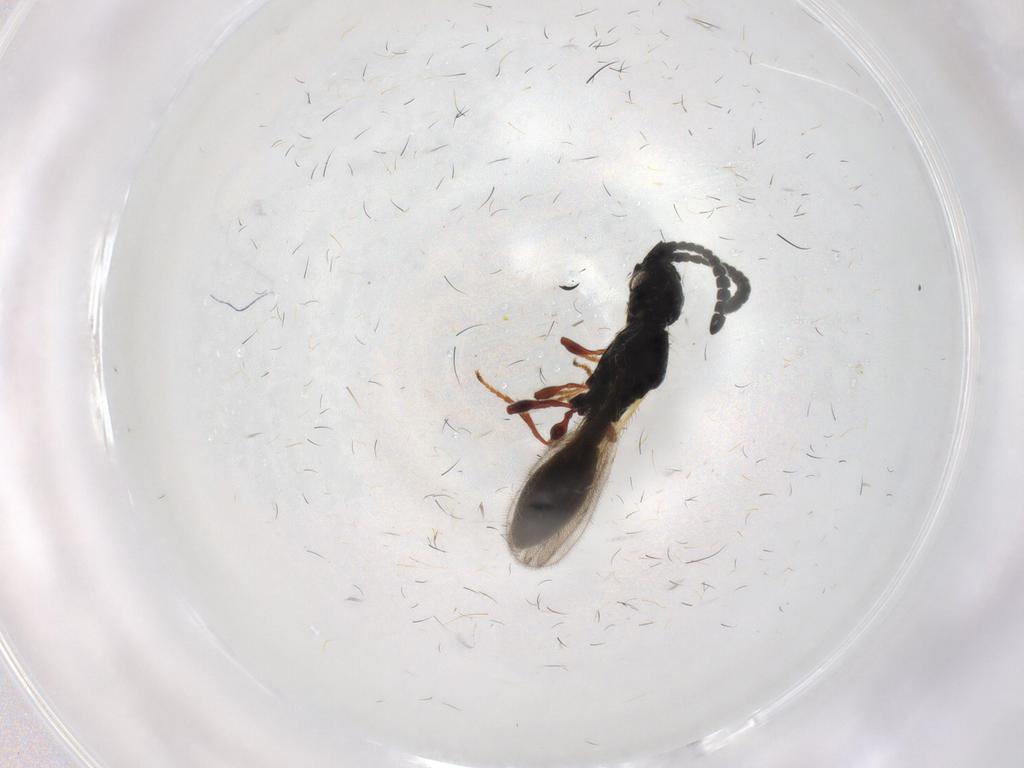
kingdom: Animalia
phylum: Arthropoda
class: Insecta
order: Hymenoptera
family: Diapriidae
